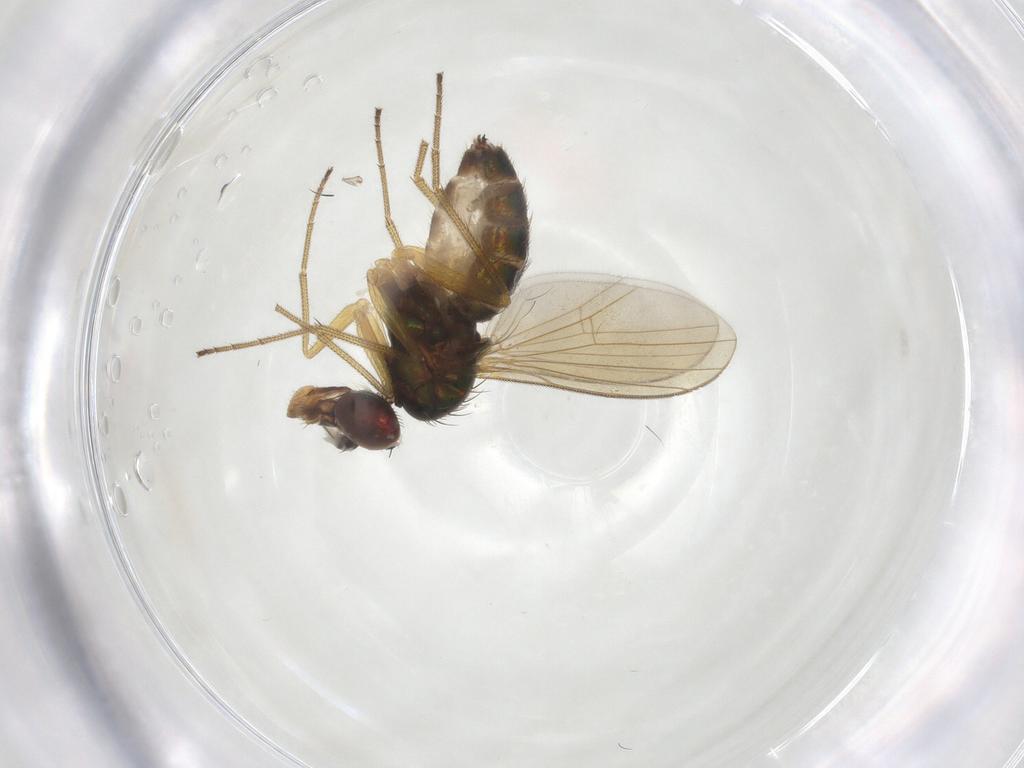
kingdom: Animalia
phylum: Arthropoda
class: Insecta
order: Diptera
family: Dolichopodidae
